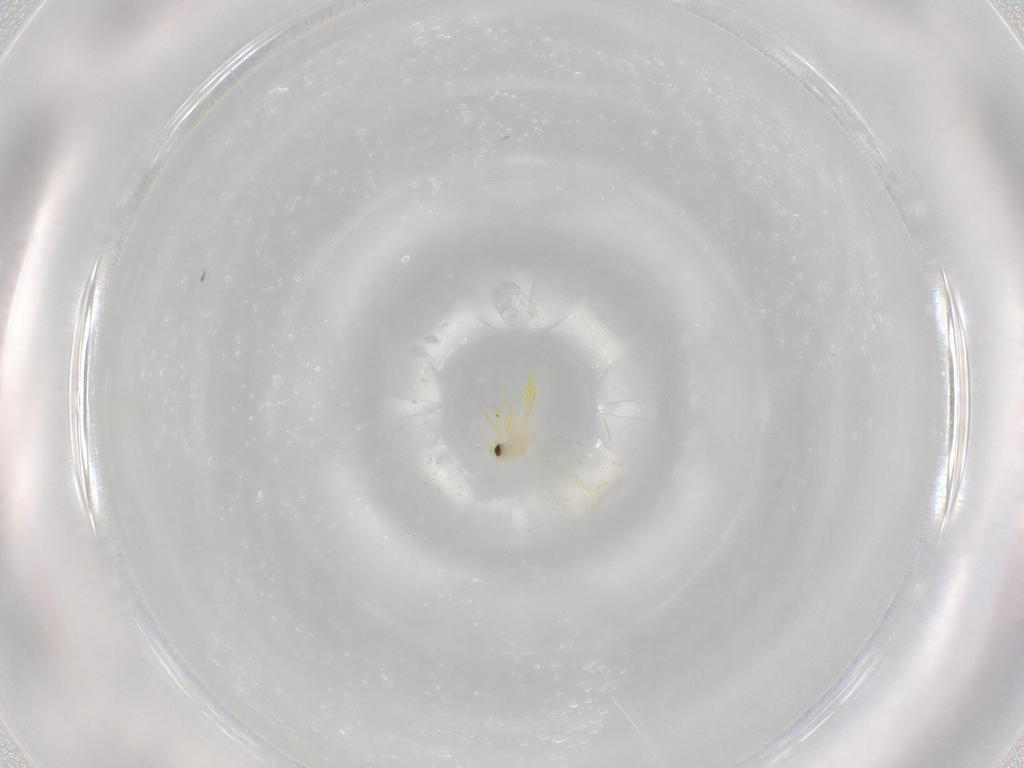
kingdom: Animalia
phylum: Arthropoda
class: Insecta
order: Hemiptera
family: Aleyrodidae
